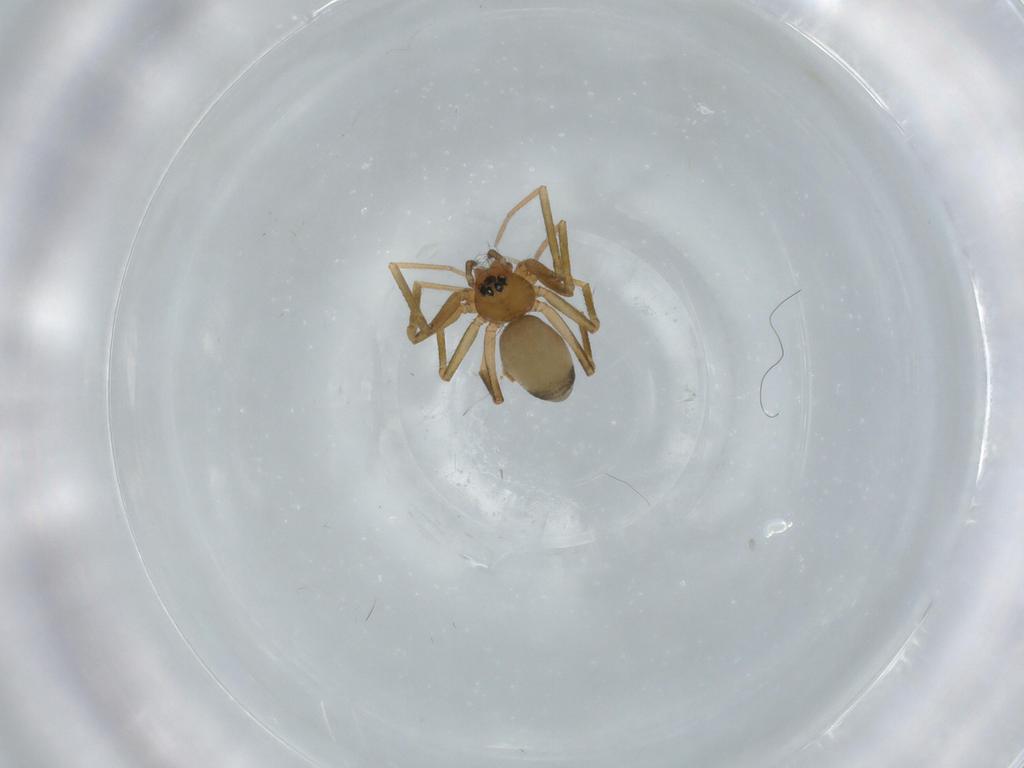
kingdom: Animalia
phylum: Arthropoda
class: Arachnida
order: Araneae
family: Linyphiidae
